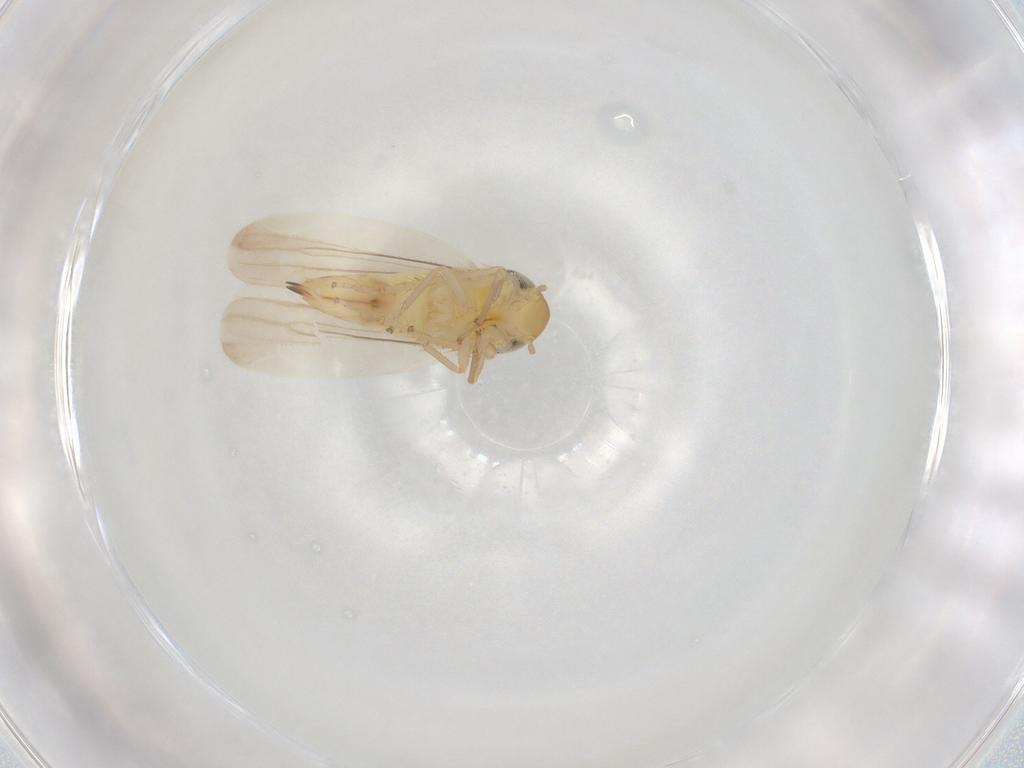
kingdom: Animalia
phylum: Arthropoda
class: Insecta
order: Hemiptera
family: Cicadellidae
